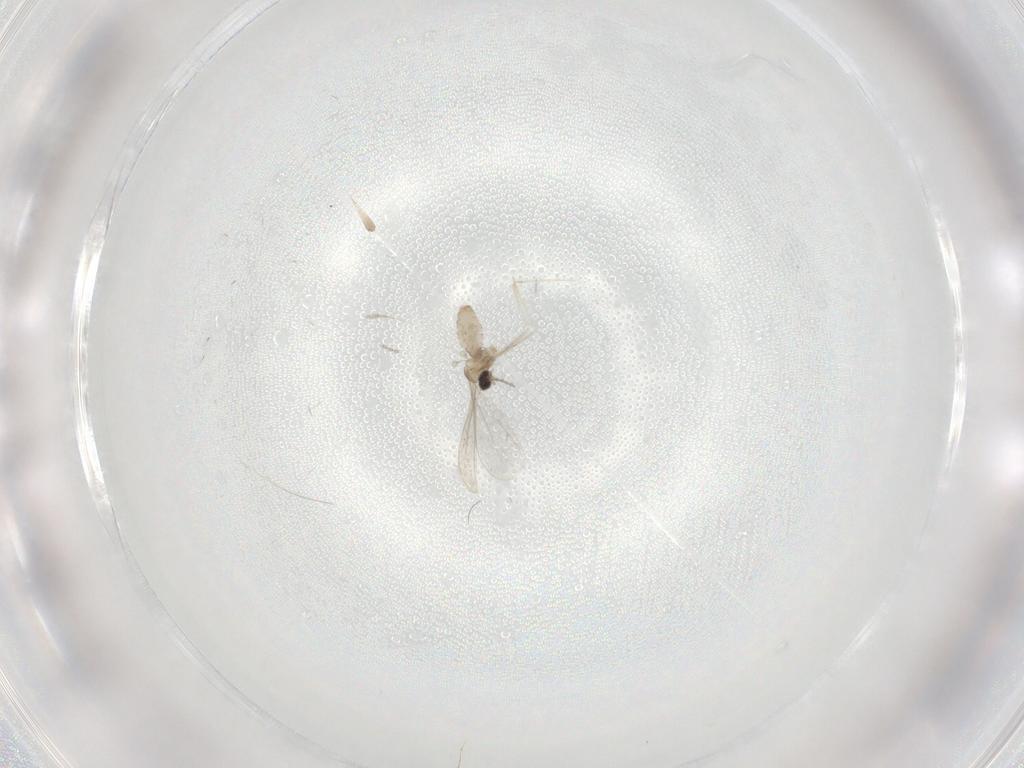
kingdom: Animalia
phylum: Arthropoda
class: Insecta
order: Diptera
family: Cecidomyiidae
